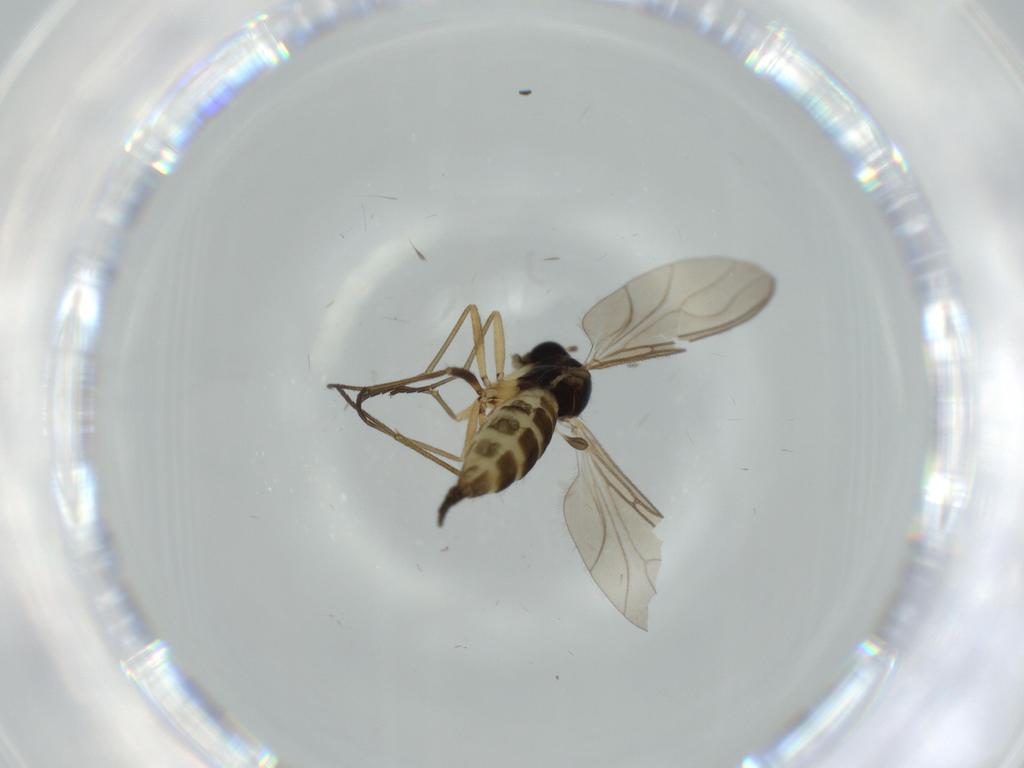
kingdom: Animalia
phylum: Arthropoda
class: Insecta
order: Diptera
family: Sciaridae
